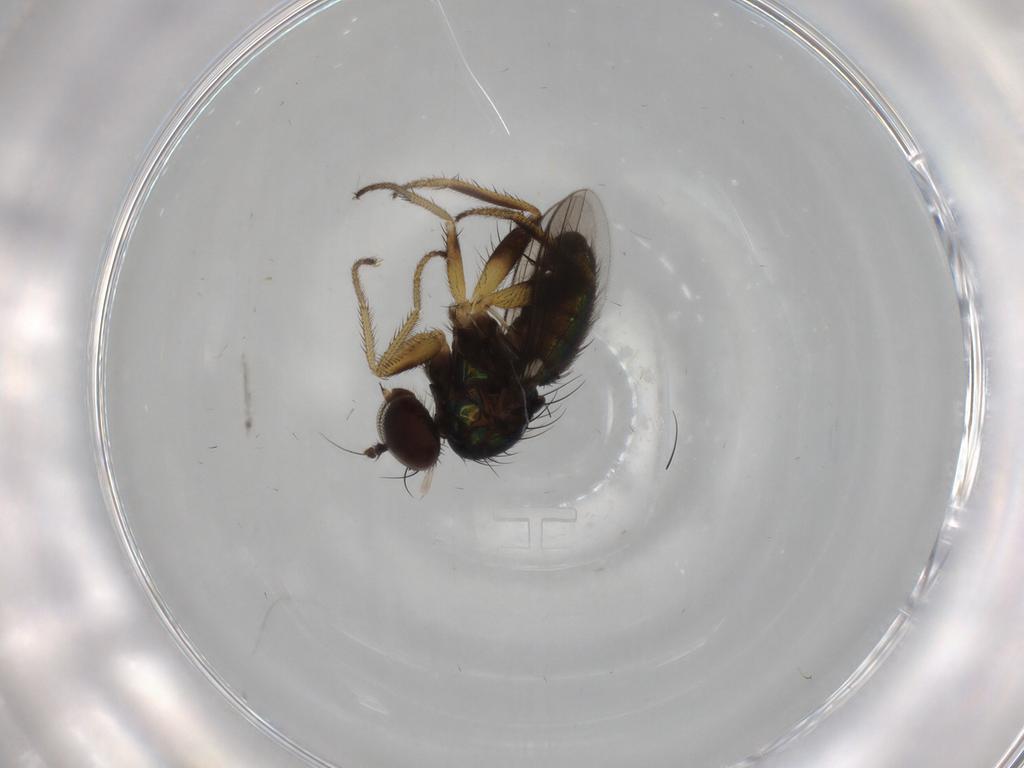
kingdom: Animalia
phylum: Arthropoda
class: Insecta
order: Diptera
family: Dolichopodidae
